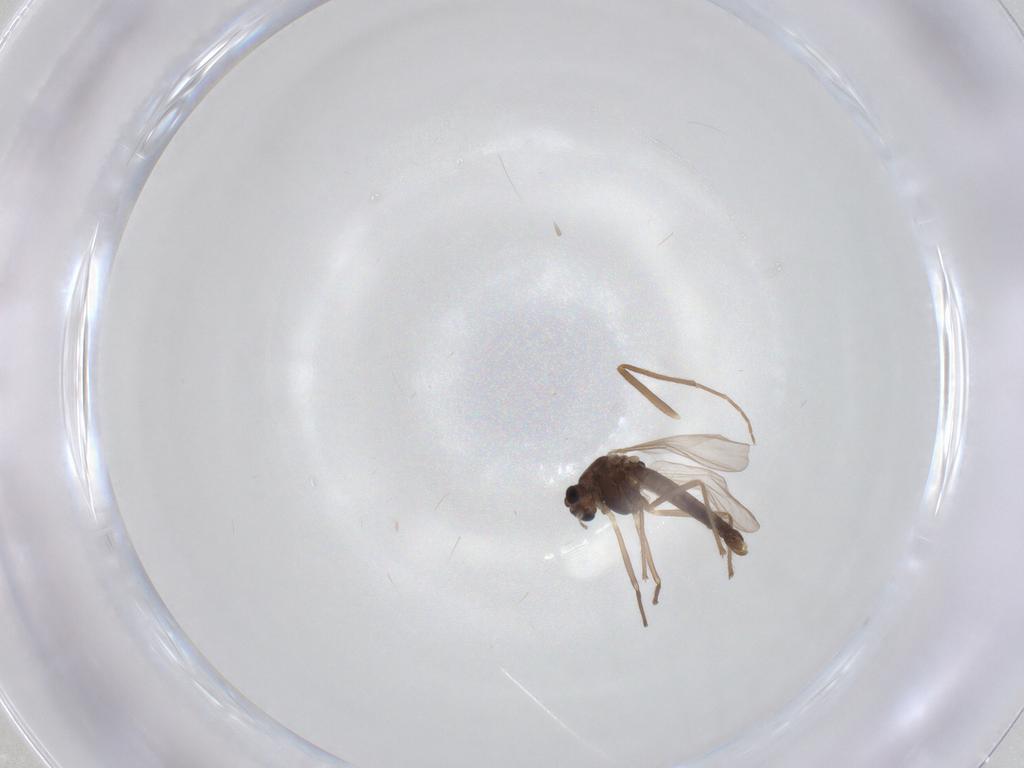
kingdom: Animalia
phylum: Arthropoda
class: Insecta
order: Diptera
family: Chironomidae
